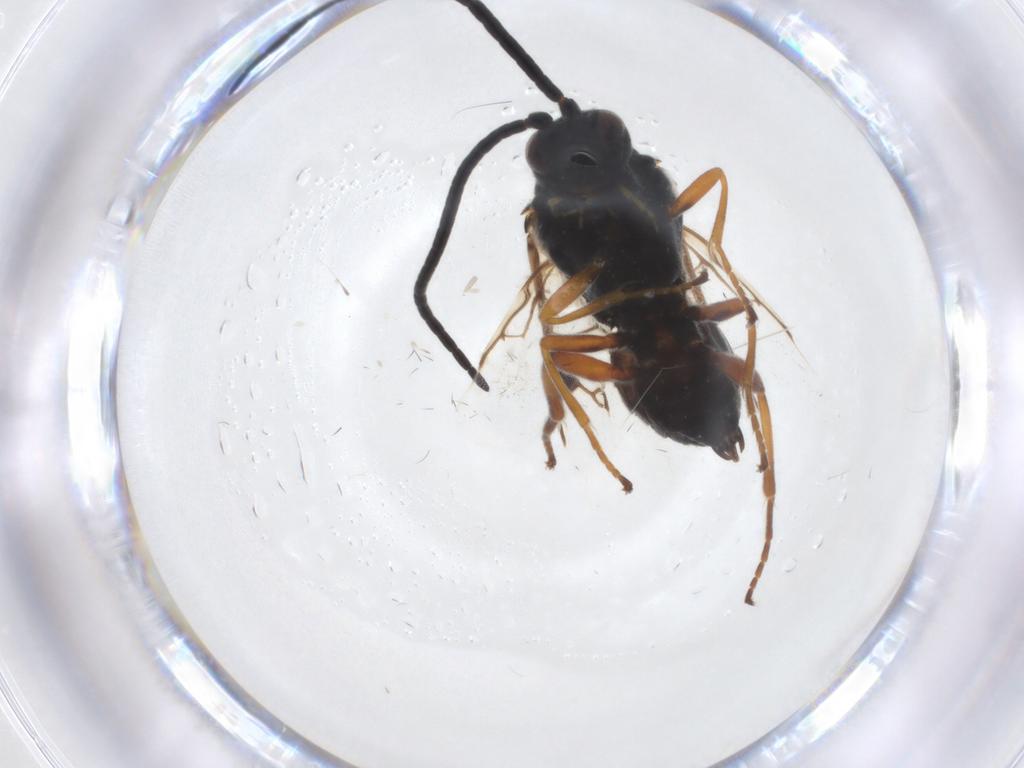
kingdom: Animalia
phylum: Arthropoda
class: Insecta
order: Hymenoptera
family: Braconidae
